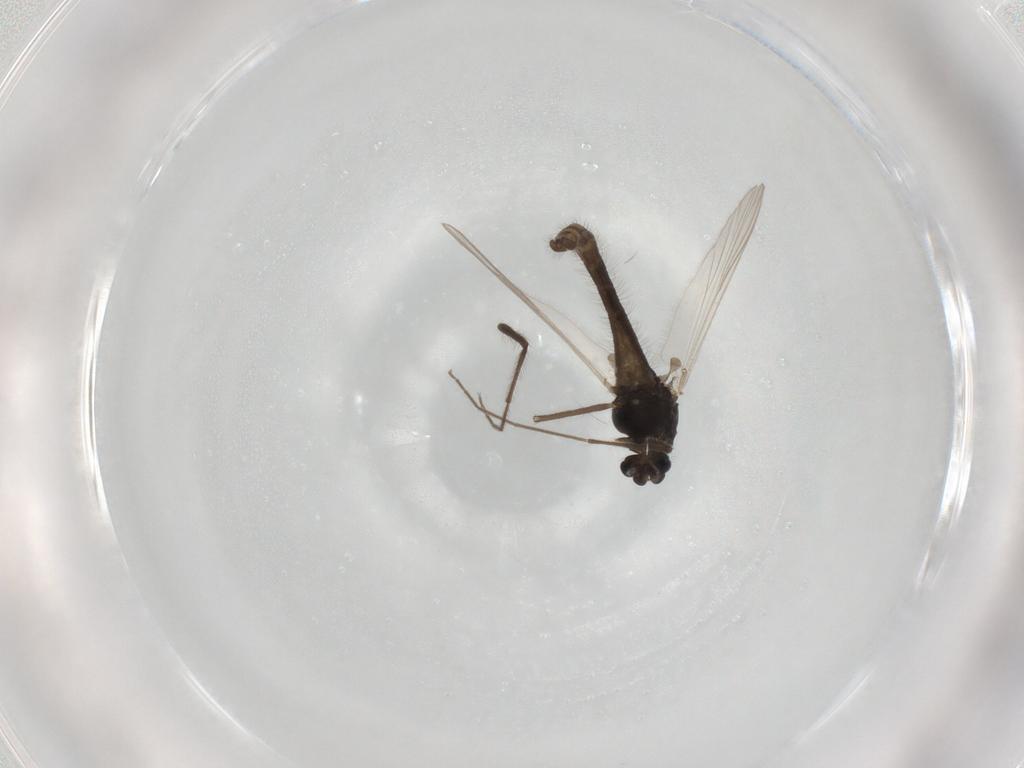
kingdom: Animalia
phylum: Arthropoda
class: Insecta
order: Diptera
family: Chironomidae
